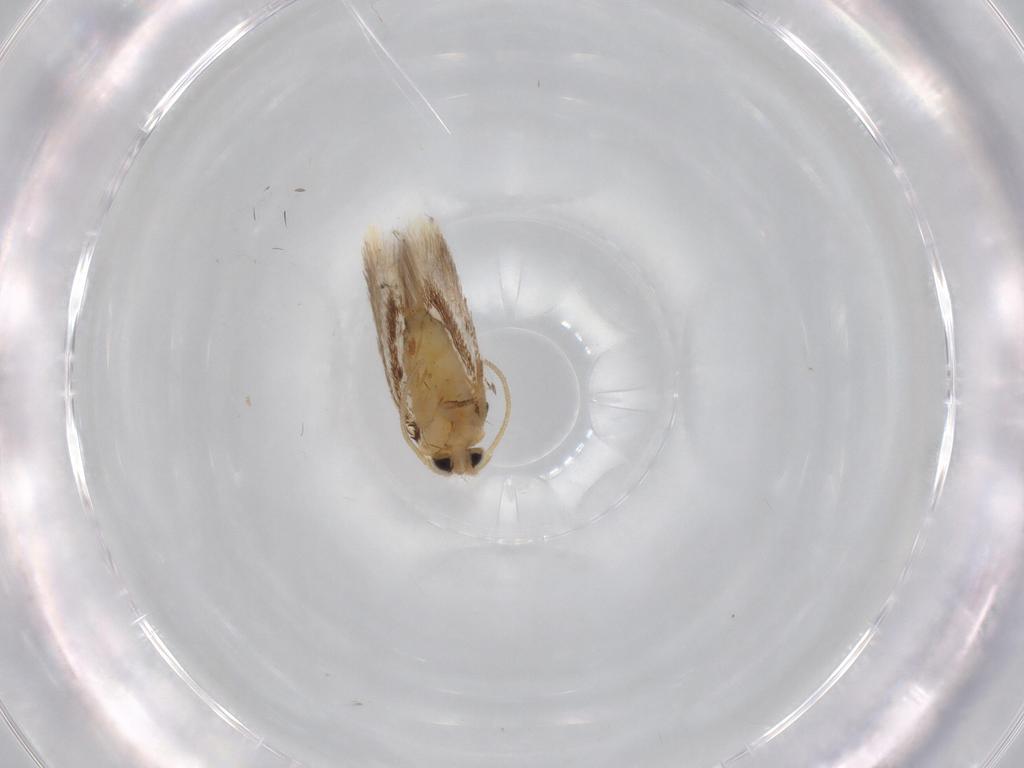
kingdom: Animalia
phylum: Arthropoda
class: Insecta
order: Lepidoptera
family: Nepticulidae
